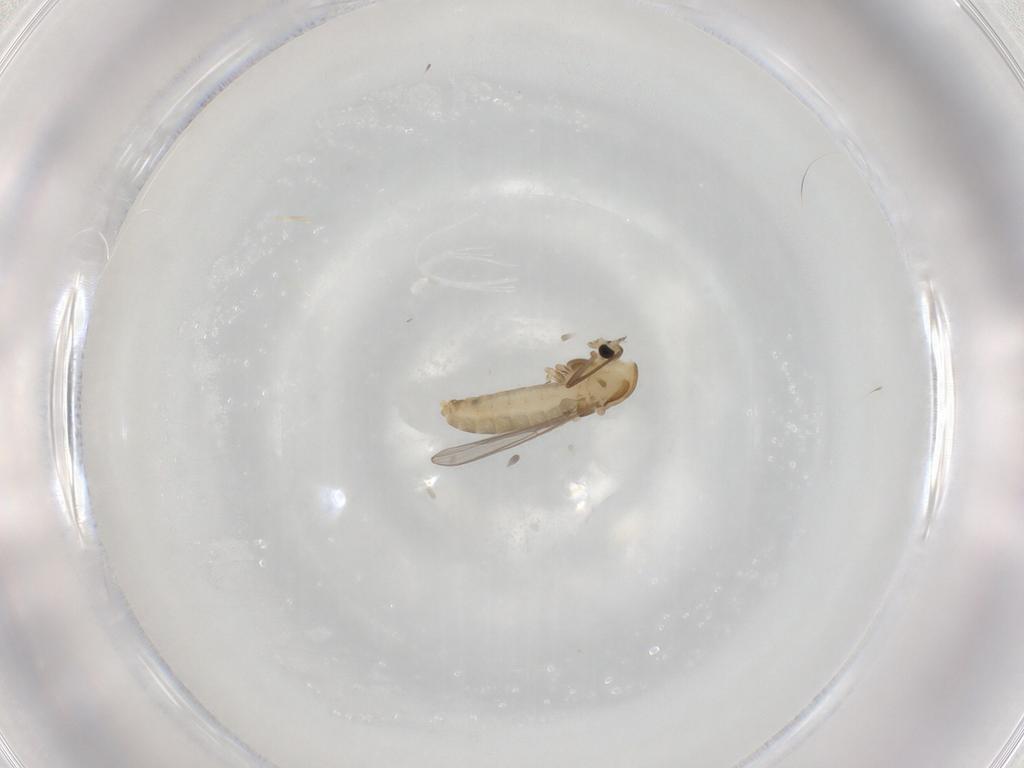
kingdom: Animalia
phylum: Arthropoda
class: Insecta
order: Diptera
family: Chironomidae
